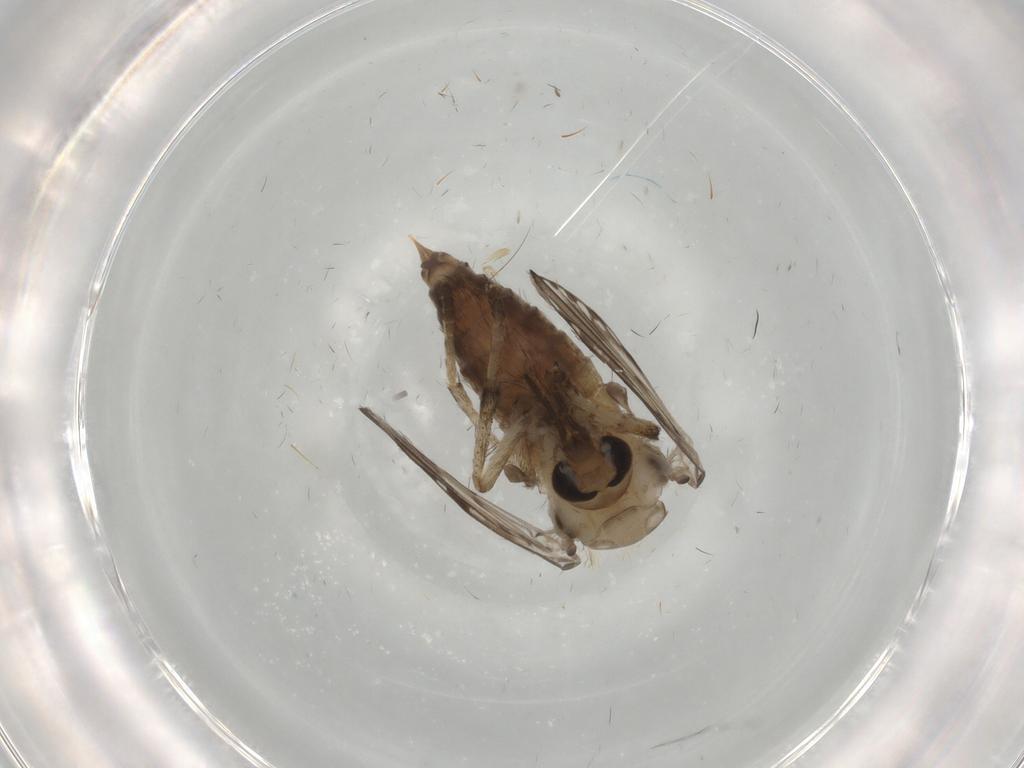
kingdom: Animalia
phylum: Arthropoda
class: Insecta
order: Diptera
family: Psychodidae
